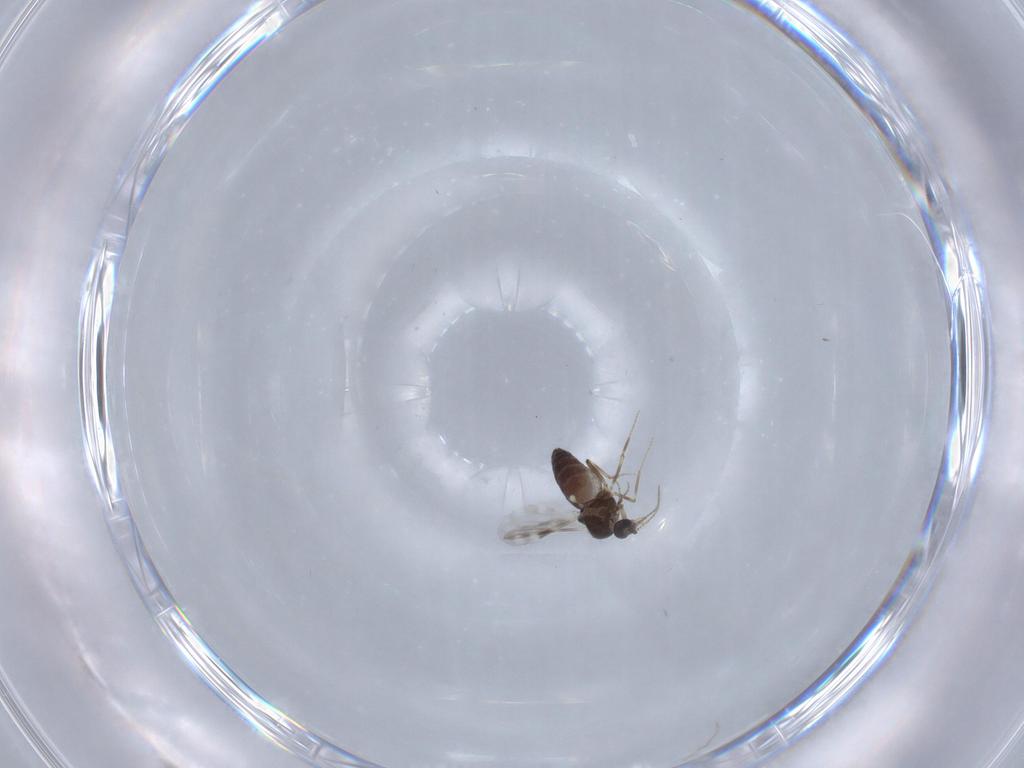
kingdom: Animalia
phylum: Arthropoda
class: Insecta
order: Diptera
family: Ceratopogonidae
